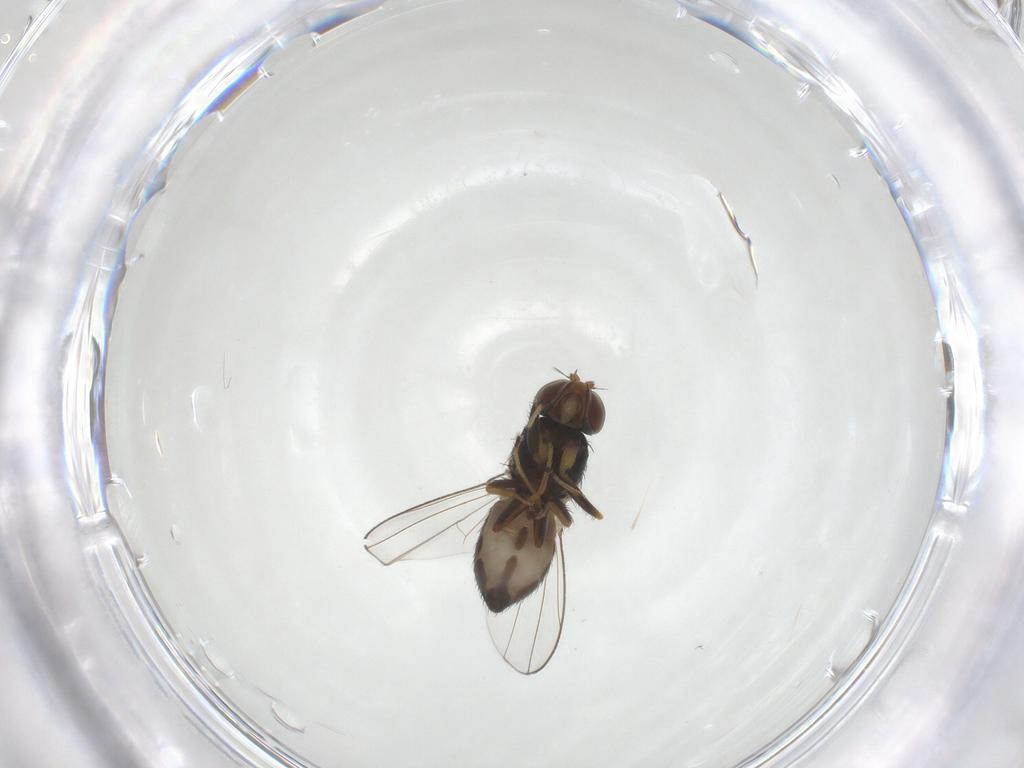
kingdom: Animalia
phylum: Arthropoda
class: Insecta
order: Diptera
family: Ephydridae
